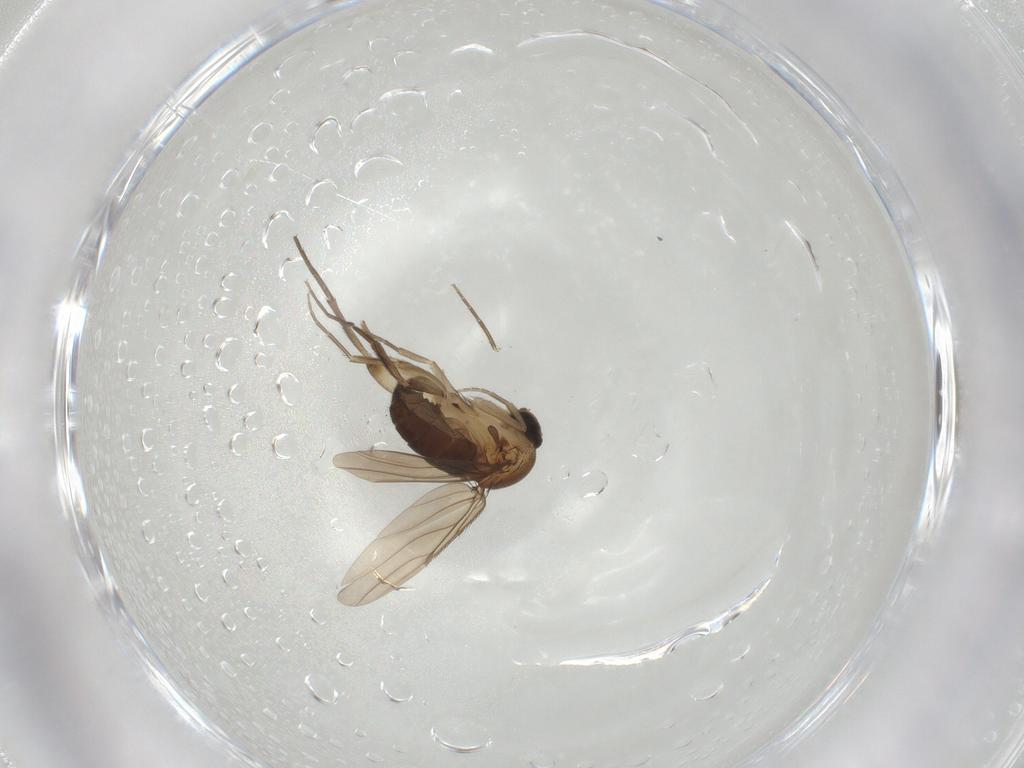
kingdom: Animalia
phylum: Arthropoda
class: Insecta
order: Diptera
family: Phoridae
